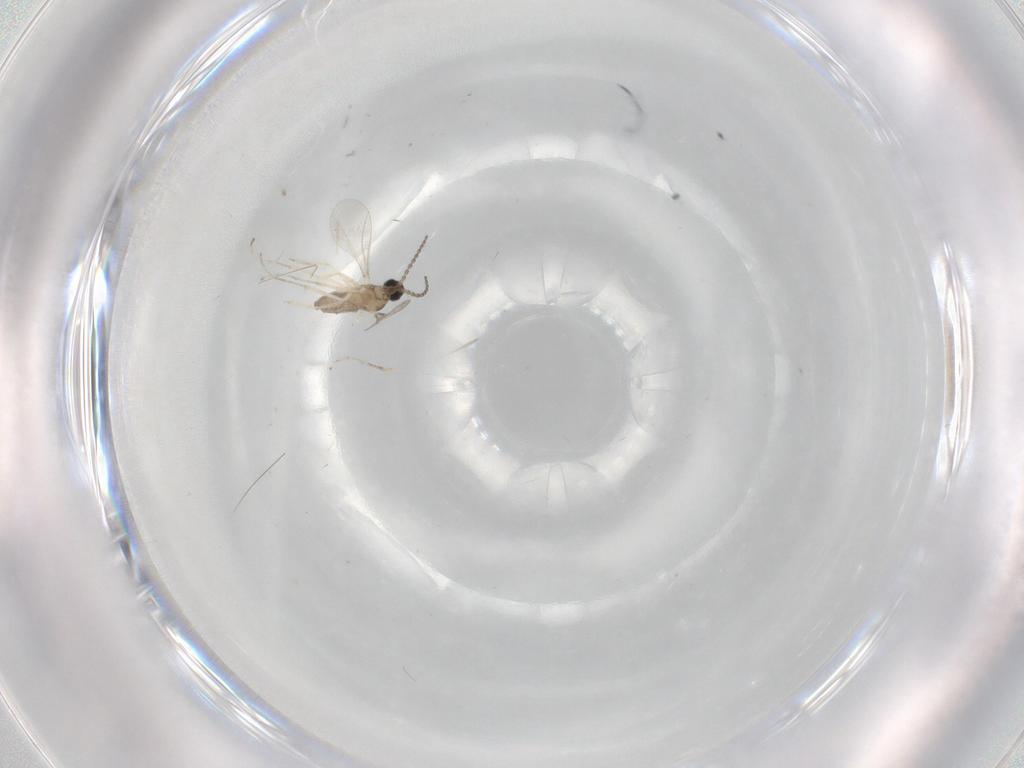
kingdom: Animalia
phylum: Arthropoda
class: Insecta
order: Diptera
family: Cecidomyiidae
